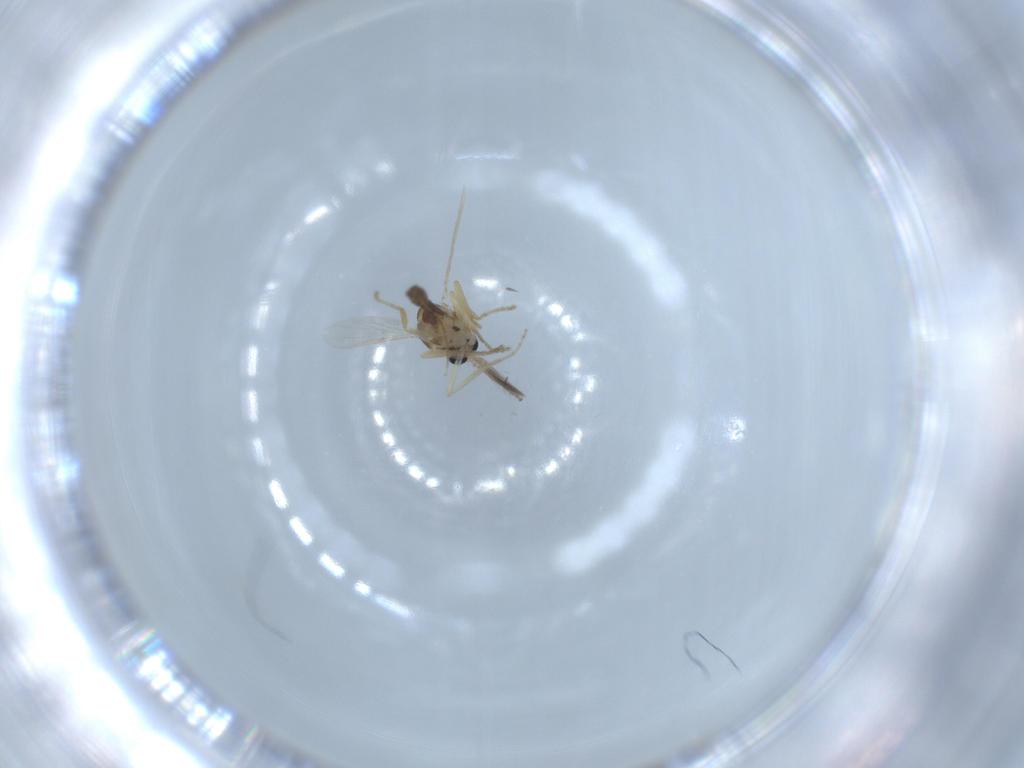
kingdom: Animalia
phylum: Arthropoda
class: Insecta
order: Diptera
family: Ceratopogonidae
